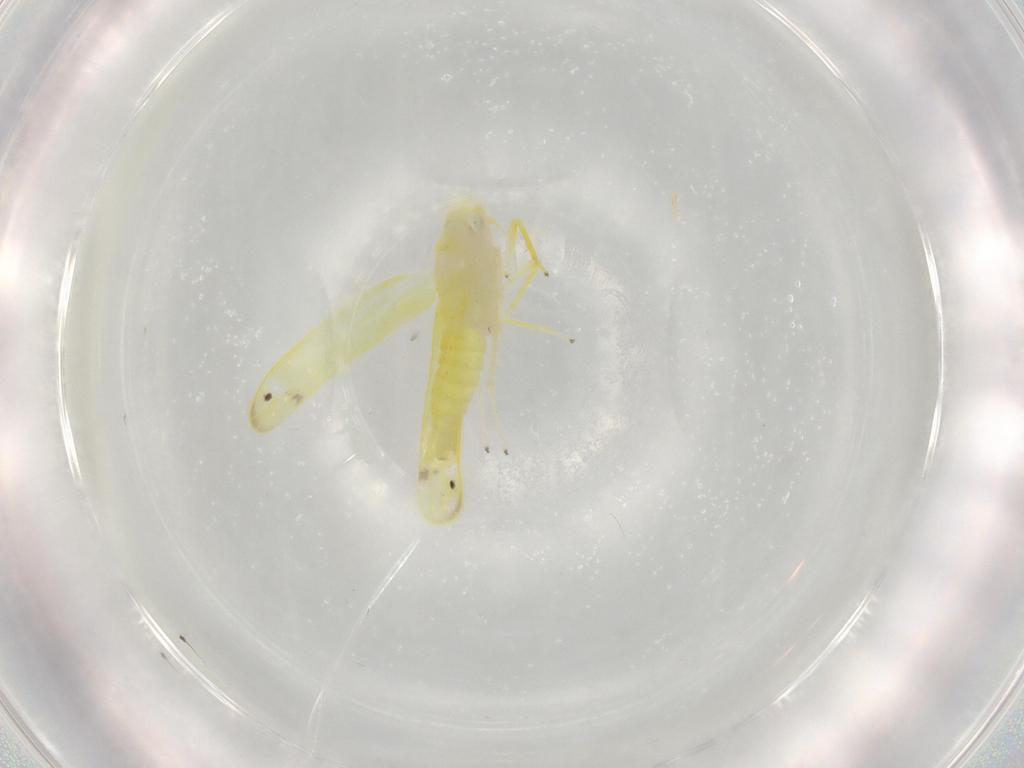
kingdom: Animalia
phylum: Arthropoda
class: Insecta
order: Hemiptera
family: Cicadellidae
